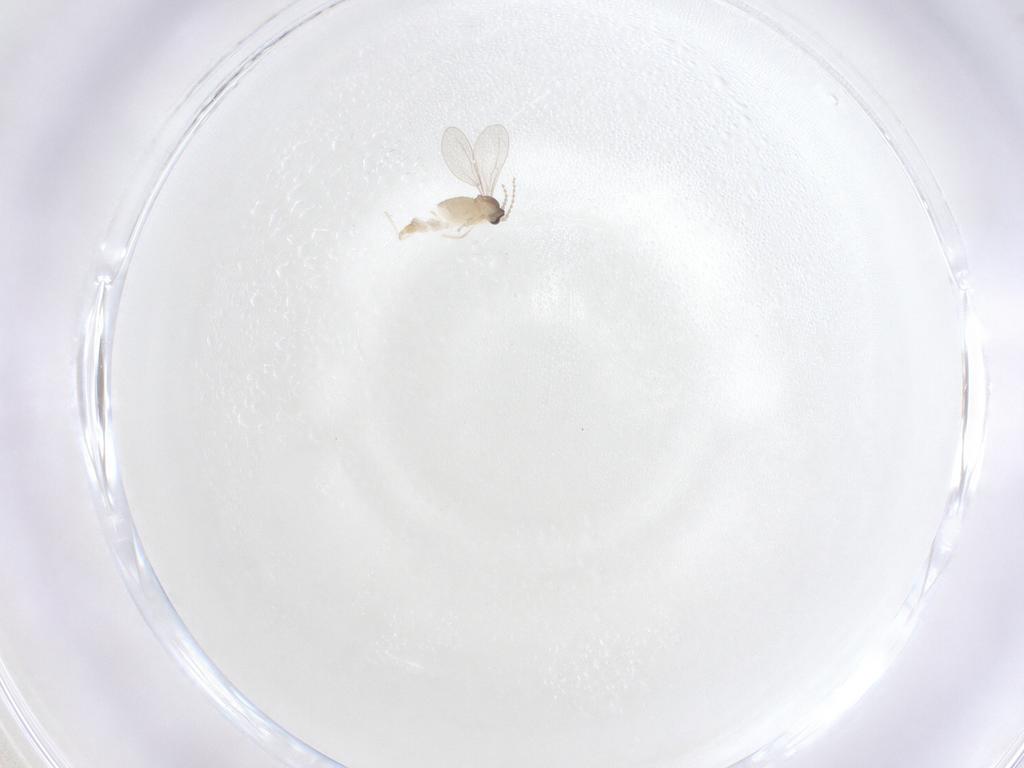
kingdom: Animalia
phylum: Arthropoda
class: Insecta
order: Diptera
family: Cecidomyiidae
